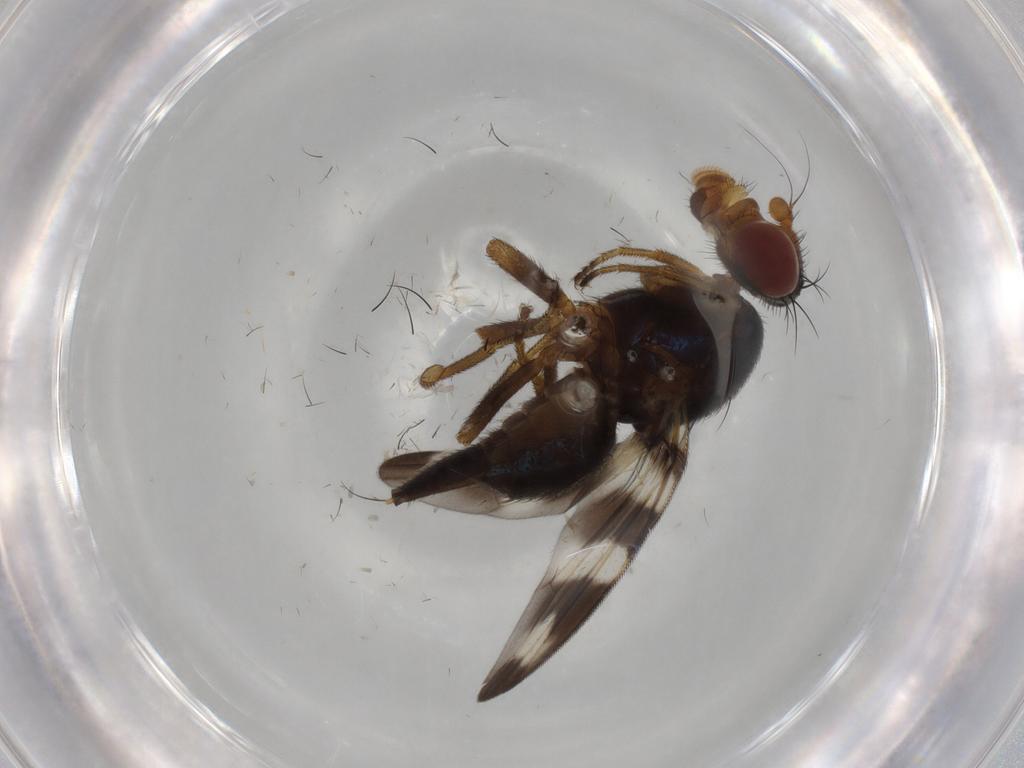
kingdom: Animalia
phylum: Arthropoda
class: Insecta
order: Diptera
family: Ulidiidae
